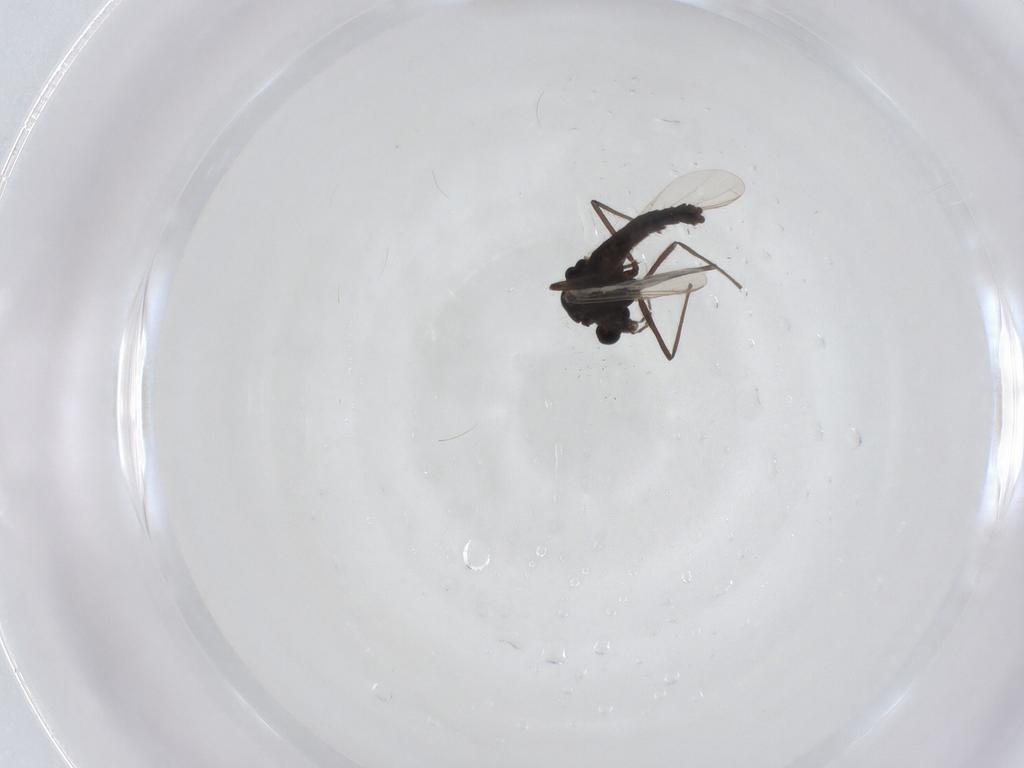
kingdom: Animalia
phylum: Arthropoda
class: Insecta
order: Diptera
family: Chironomidae
